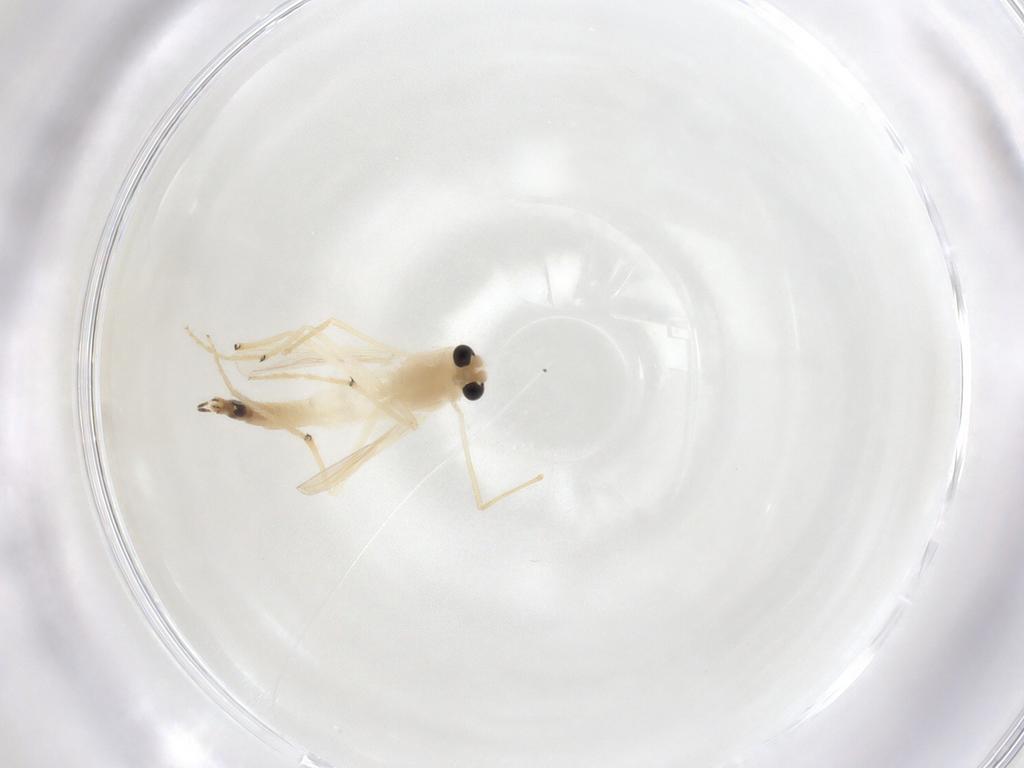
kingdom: Animalia
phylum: Arthropoda
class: Insecta
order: Diptera
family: Chironomidae
